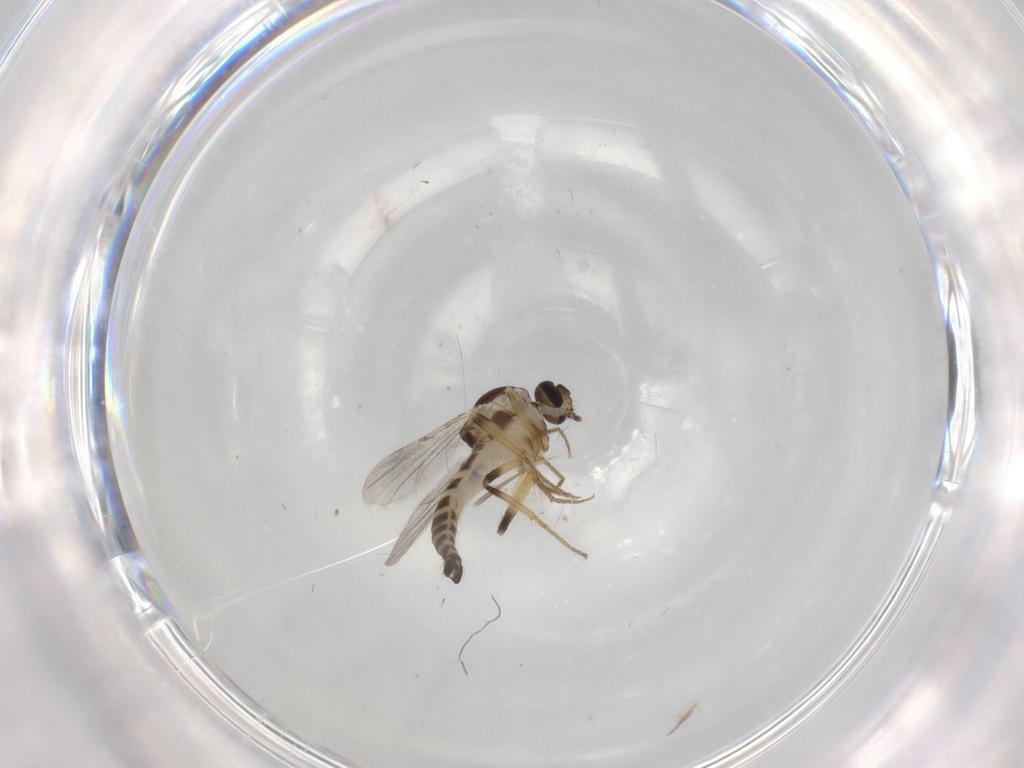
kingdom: Animalia
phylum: Arthropoda
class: Insecta
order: Diptera
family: Ceratopogonidae
